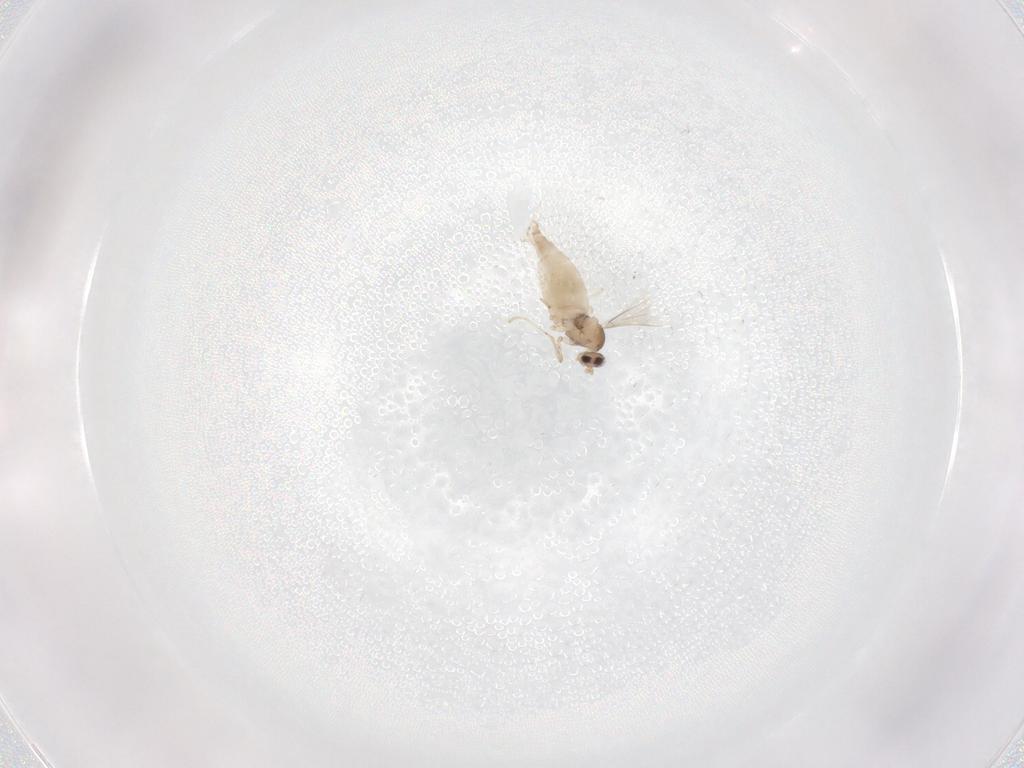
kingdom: Animalia
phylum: Arthropoda
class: Insecta
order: Diptera
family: Cecidomyiidae
